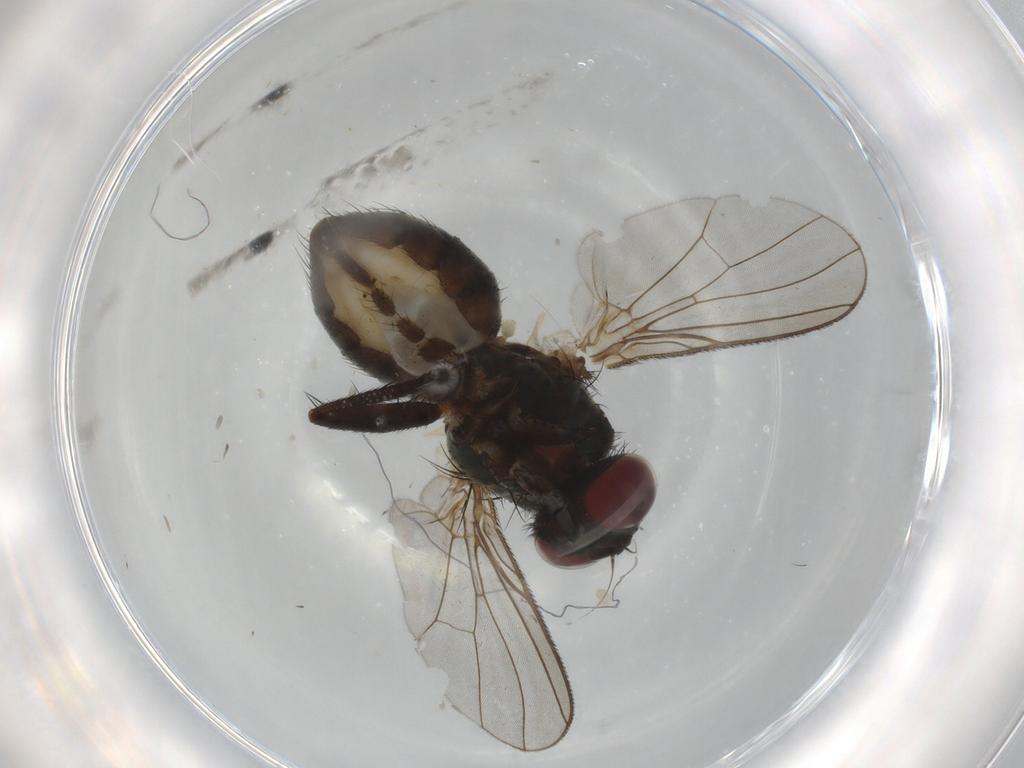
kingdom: Animalia
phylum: Arthropoda
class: Insecta
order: Diptera
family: Muscidae
